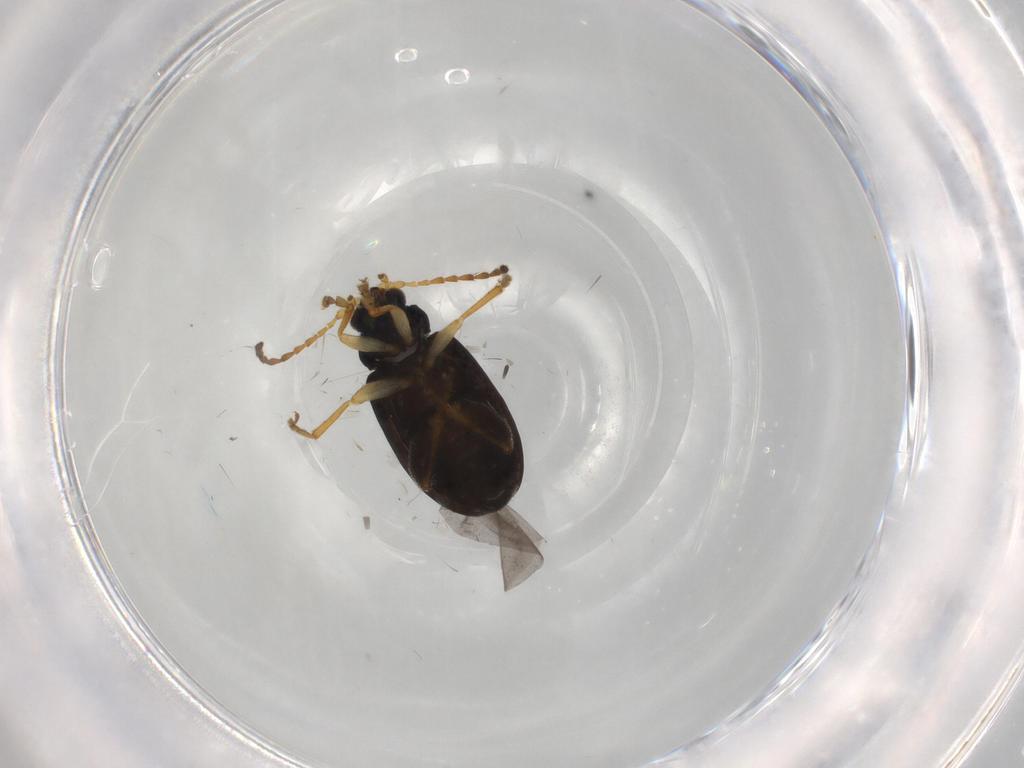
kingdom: Animalia
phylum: Arthropoda
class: Insecta
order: Coleoptera
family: Chrysomelidae
